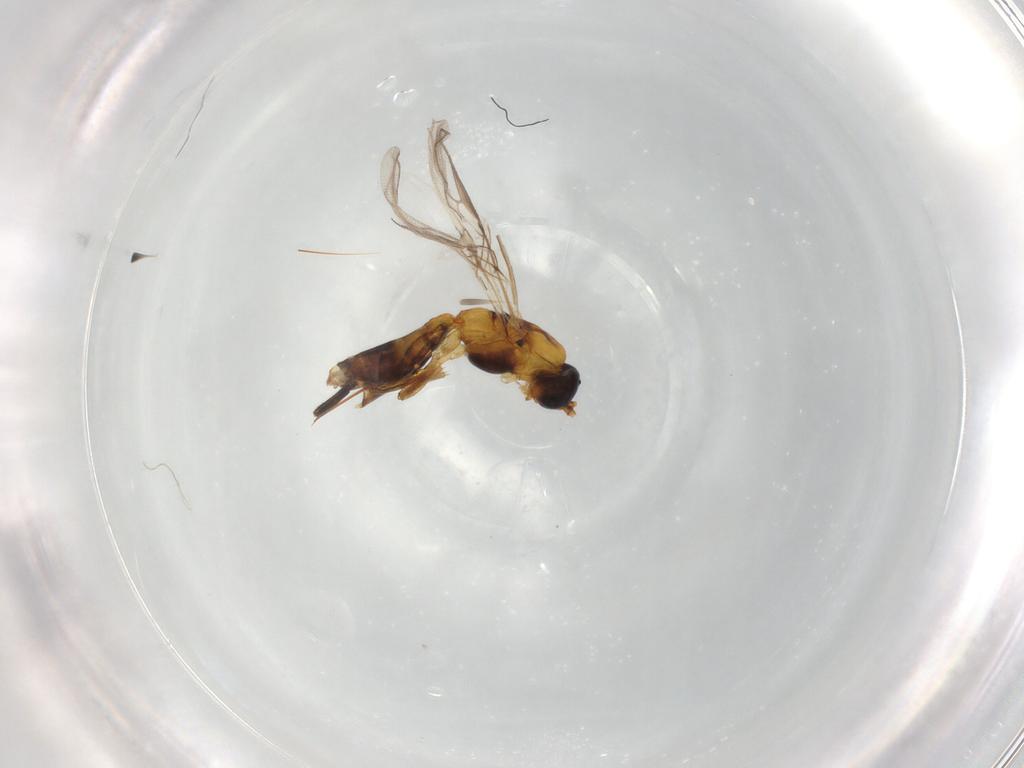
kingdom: Animalia
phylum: Arthropoda
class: Insecta
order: Hymenoptera
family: Braconidae
